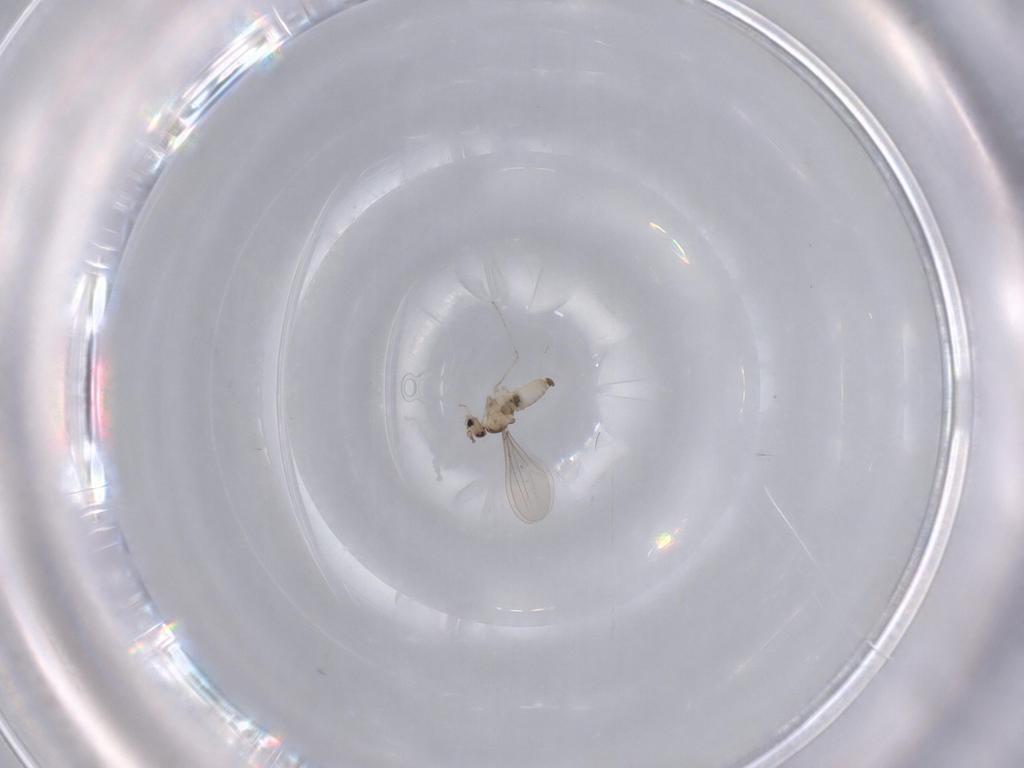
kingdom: Animalia
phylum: Arthropoda
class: Insecta
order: Diptera
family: Cecidomyiidae
